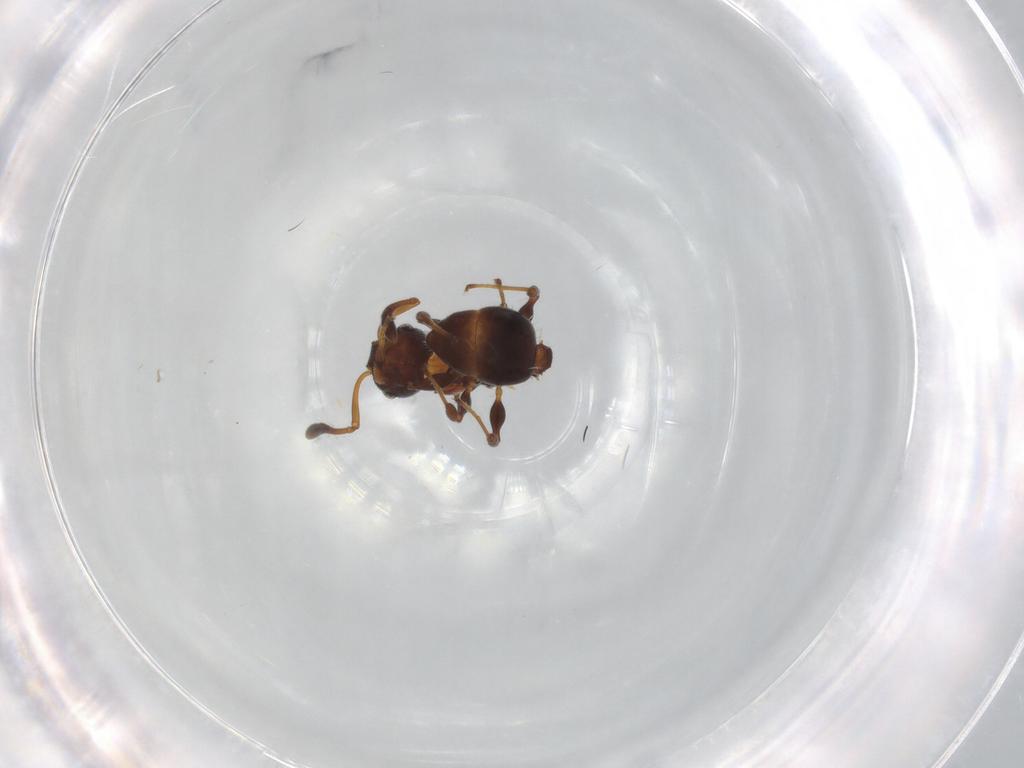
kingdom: Animalia
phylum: Arthropoda
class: Insecta
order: Hymenoptera
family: Formicidae
